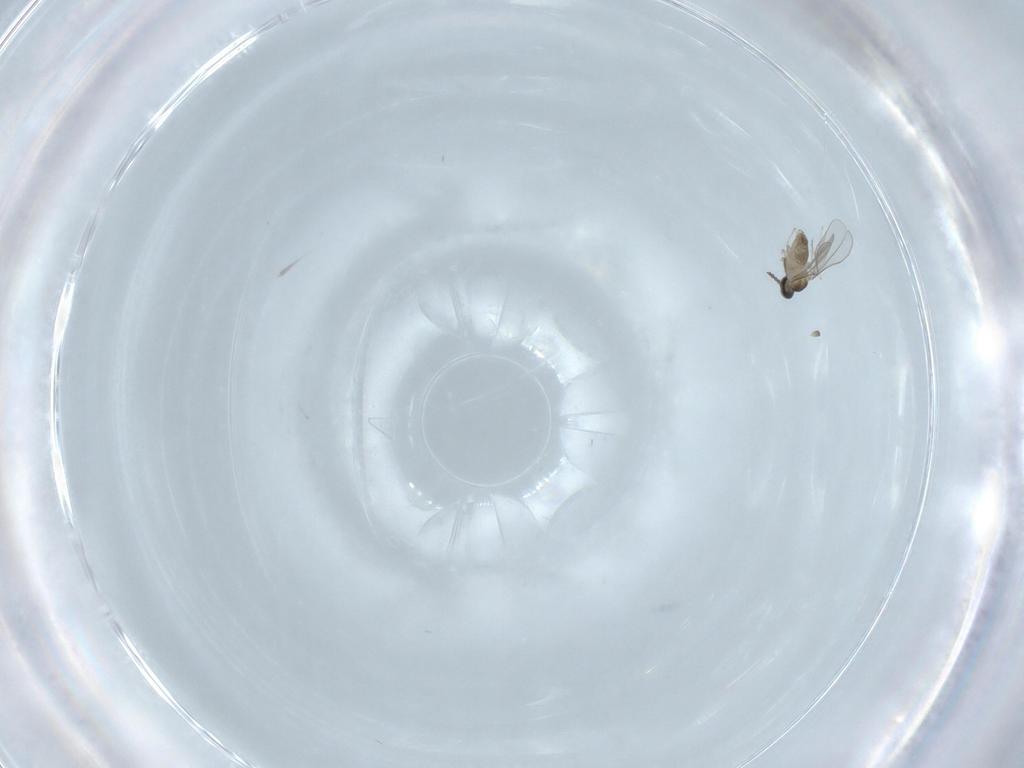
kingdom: Animalia
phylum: Arthropoda
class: Insecta
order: Diptera
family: Cecidomyiidae
